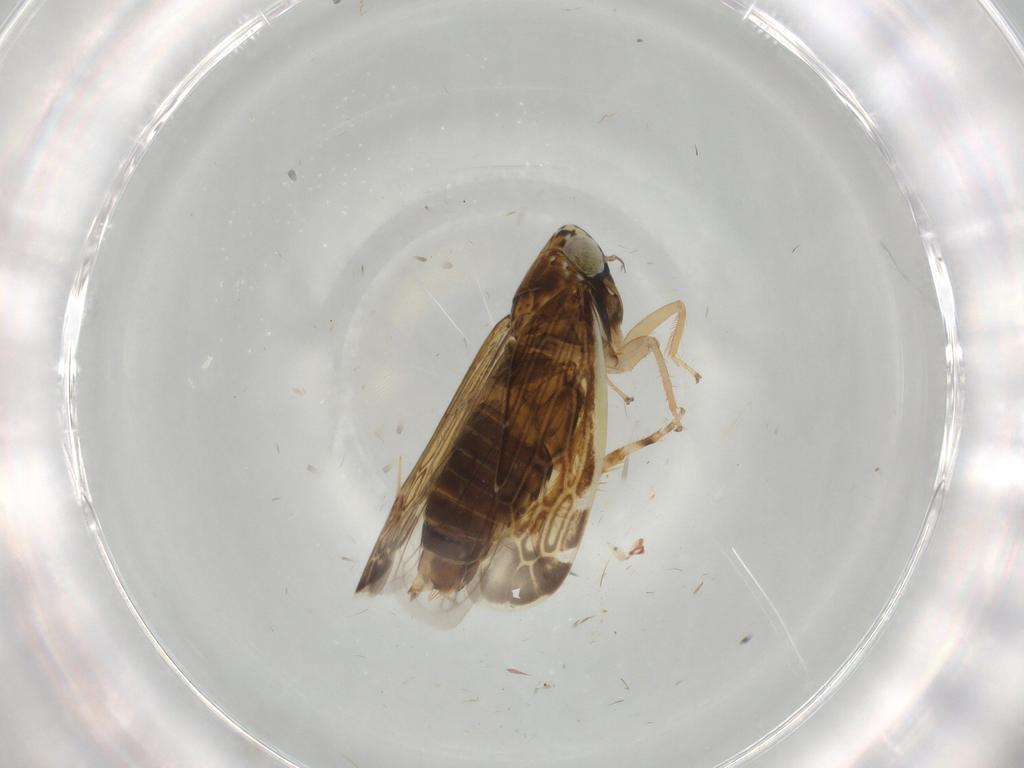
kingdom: Animalia
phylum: Arthropoda
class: Insecta
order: Hemiptera
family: Cicadellidae
